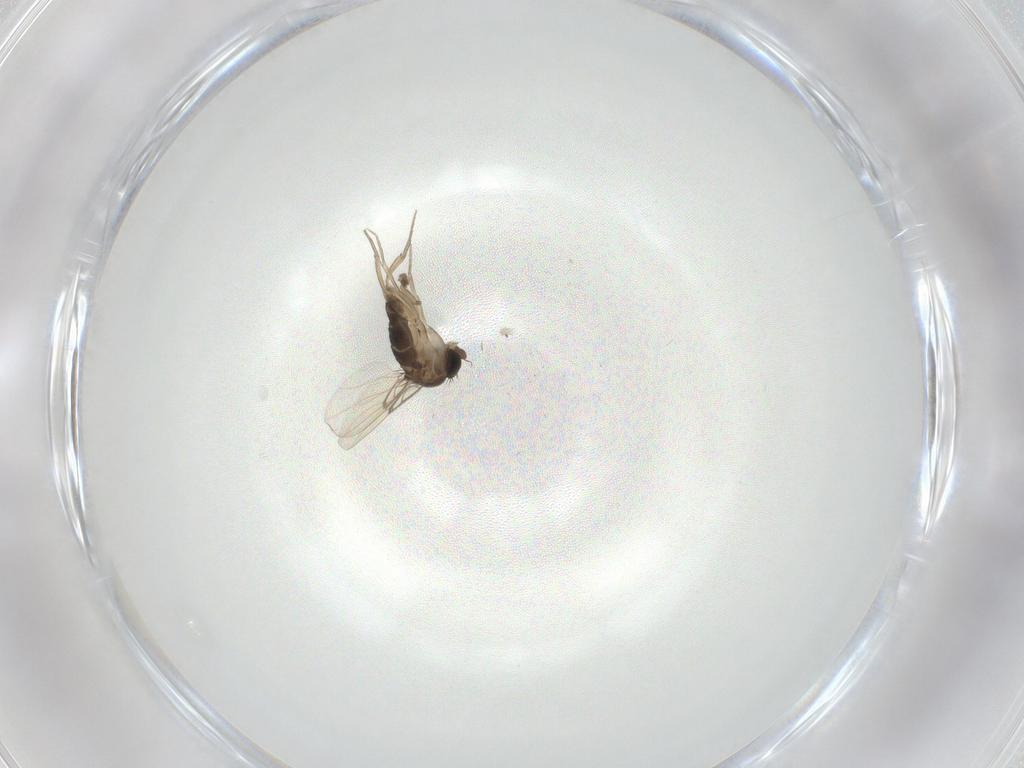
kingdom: Animalia
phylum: Arthropoda
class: Insecta
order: Diptera
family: Phoridae
